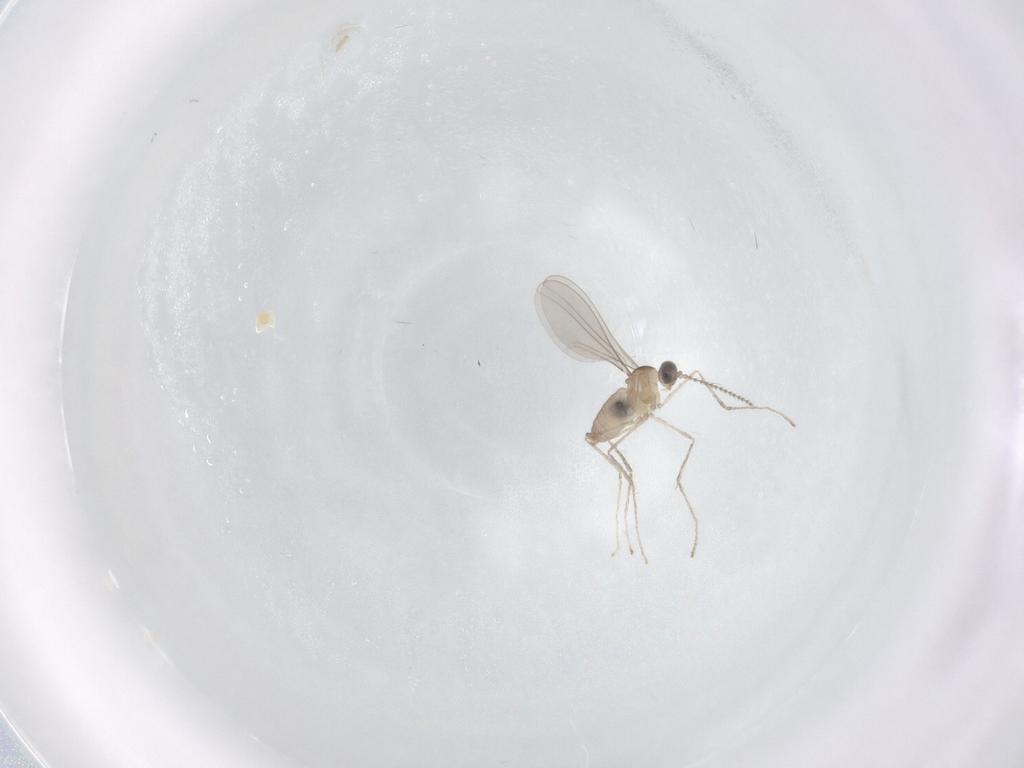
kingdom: Animalia
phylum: Arthropoda
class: Insecta
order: Diptera
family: Cecidomyiidae
